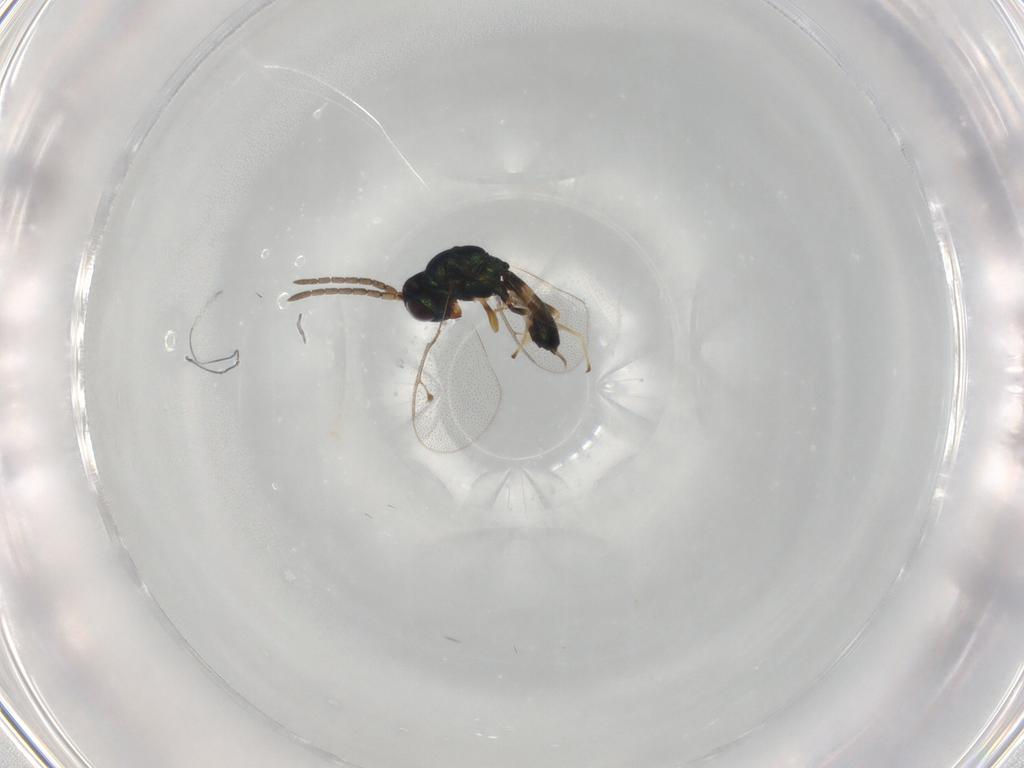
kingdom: Animalia
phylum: Arthropoda
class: Insecta
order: Hymenoptera
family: Pteromalidae
